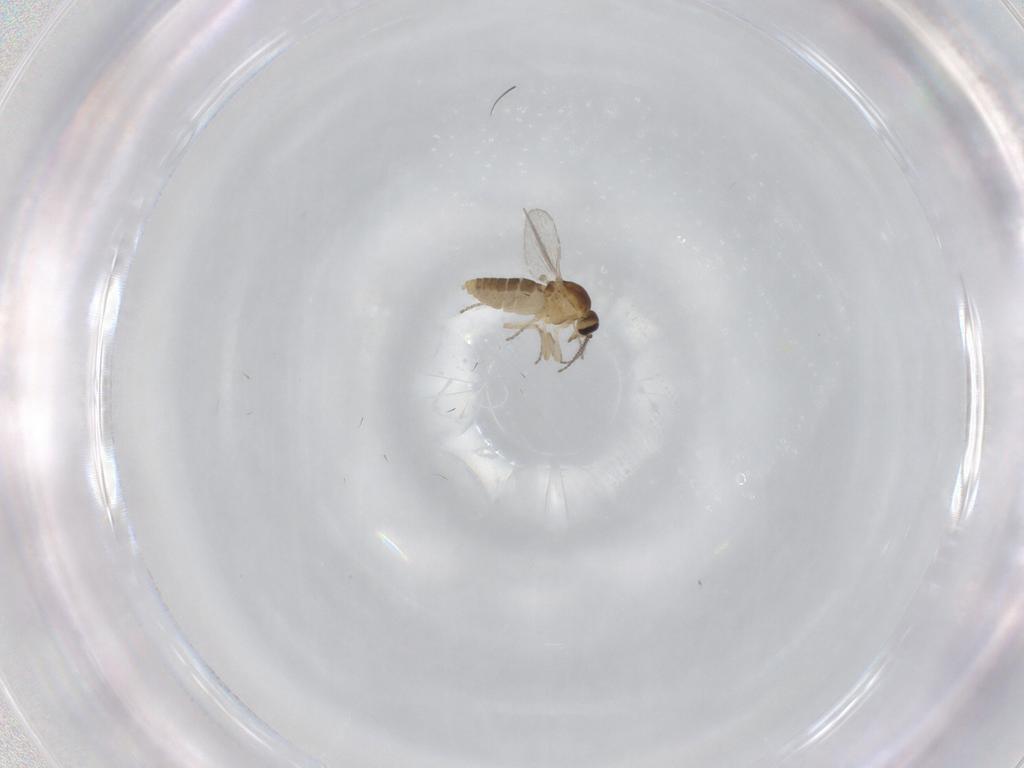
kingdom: Animalia
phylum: Arthropoda
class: Insecta
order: Diptera
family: Ceratopogonidae
